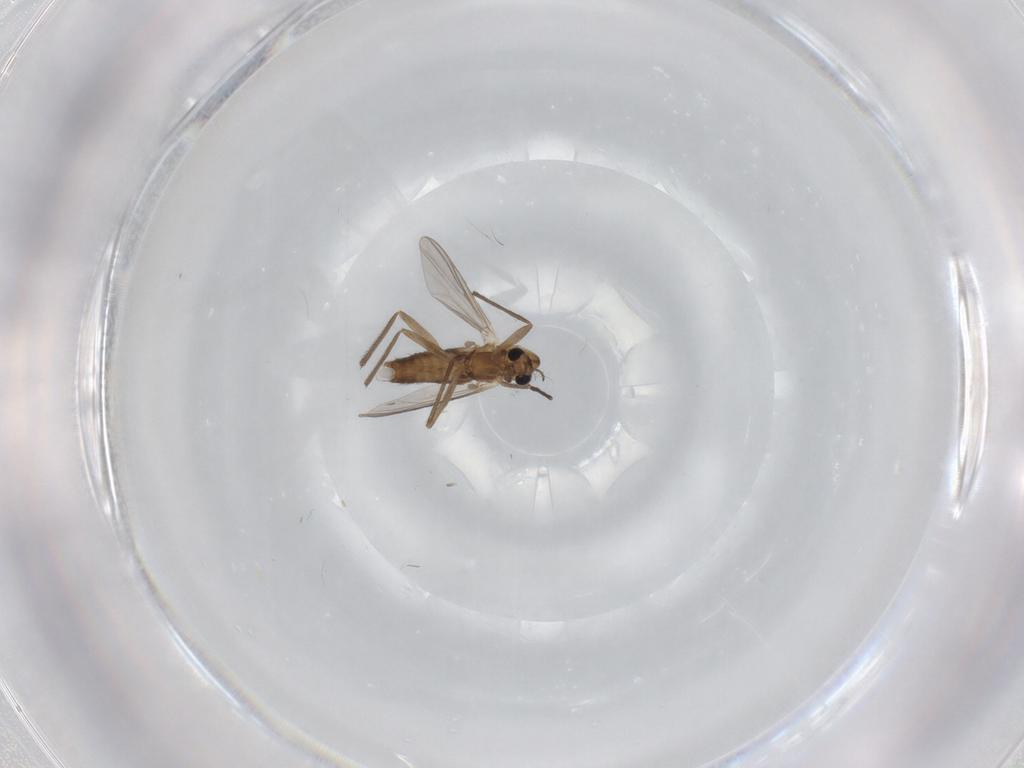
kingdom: Animalia
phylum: Arthropoda
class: Insecta
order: Diptera
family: Chironomidae
